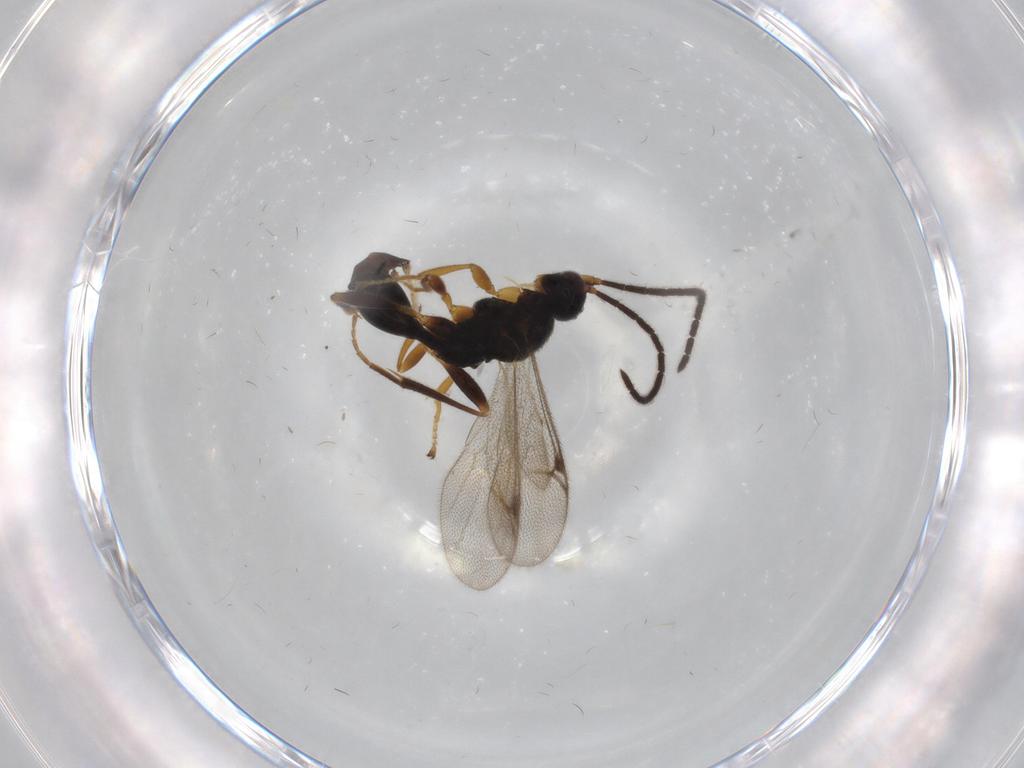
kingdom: Animalia
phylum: Arthropoda
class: Insecta
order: Hymenoptera
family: Proctotrupidae
